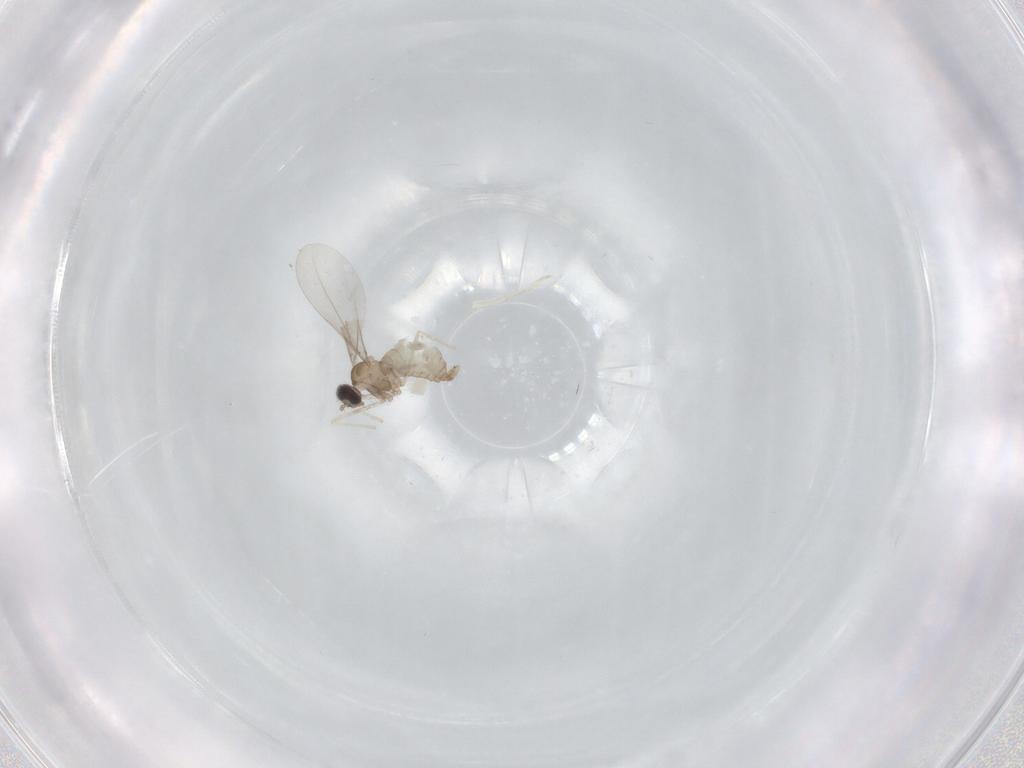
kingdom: Animalia
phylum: Arthropoda
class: Insecta
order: Diptera
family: Cecidomyiidae
